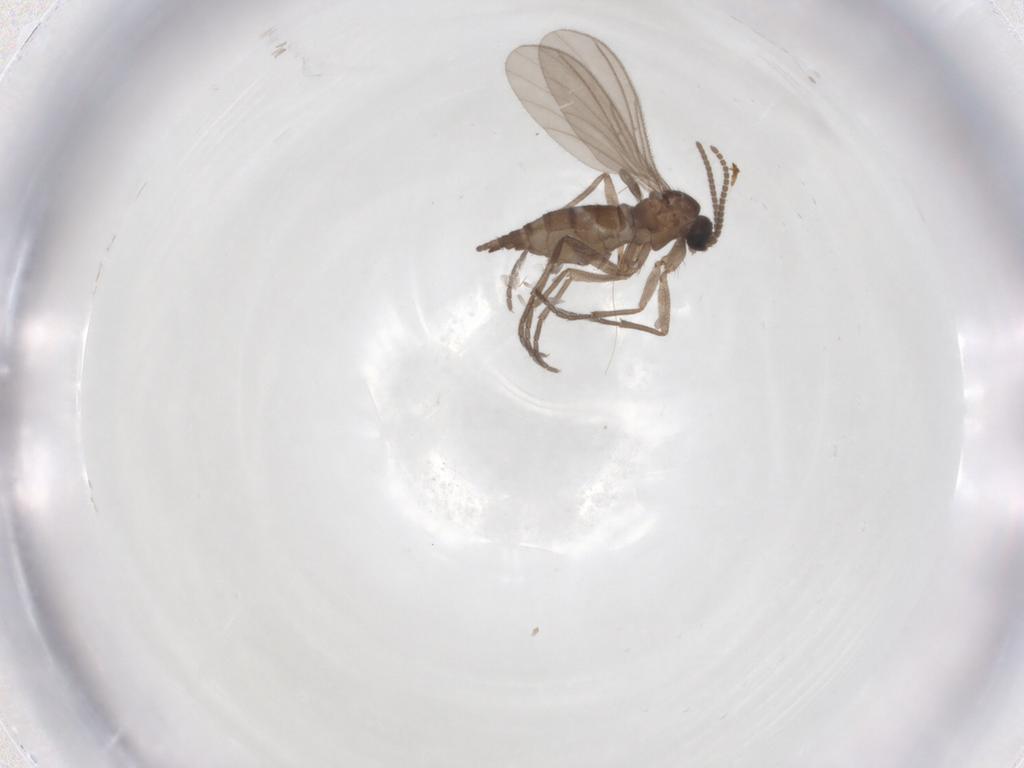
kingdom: Animalia
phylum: Arthropoda
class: Insecta
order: Diptera
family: Sciaridae
